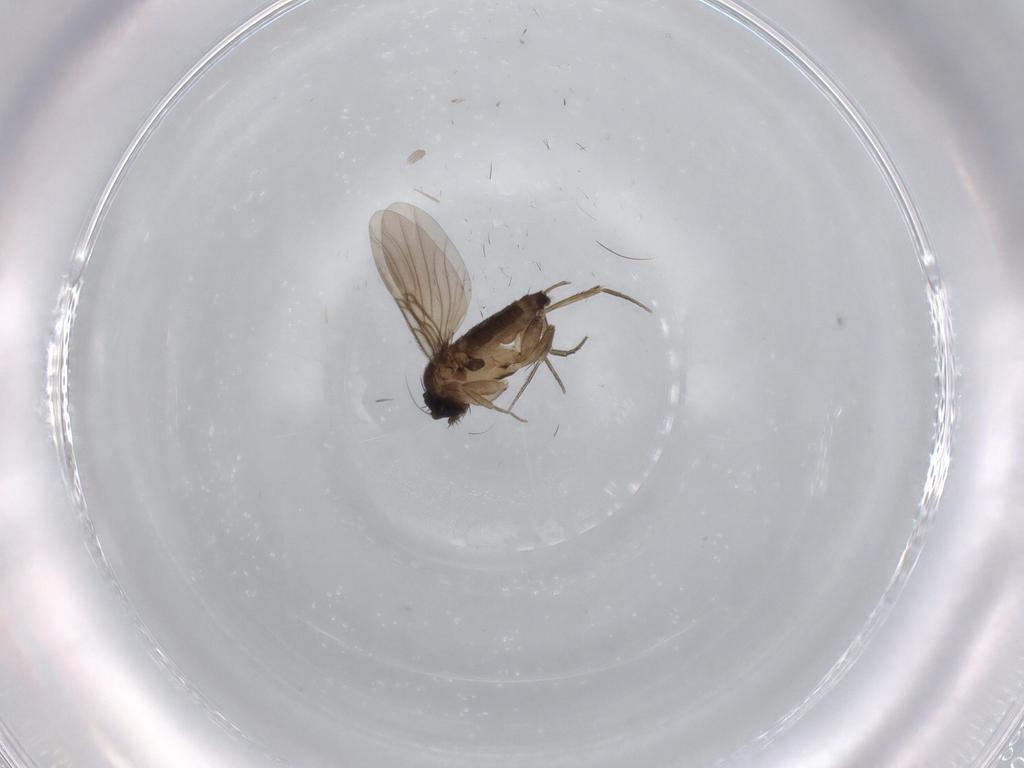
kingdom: Animalia
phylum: Arthropoda
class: Insecta
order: Diptera
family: Phoridae
